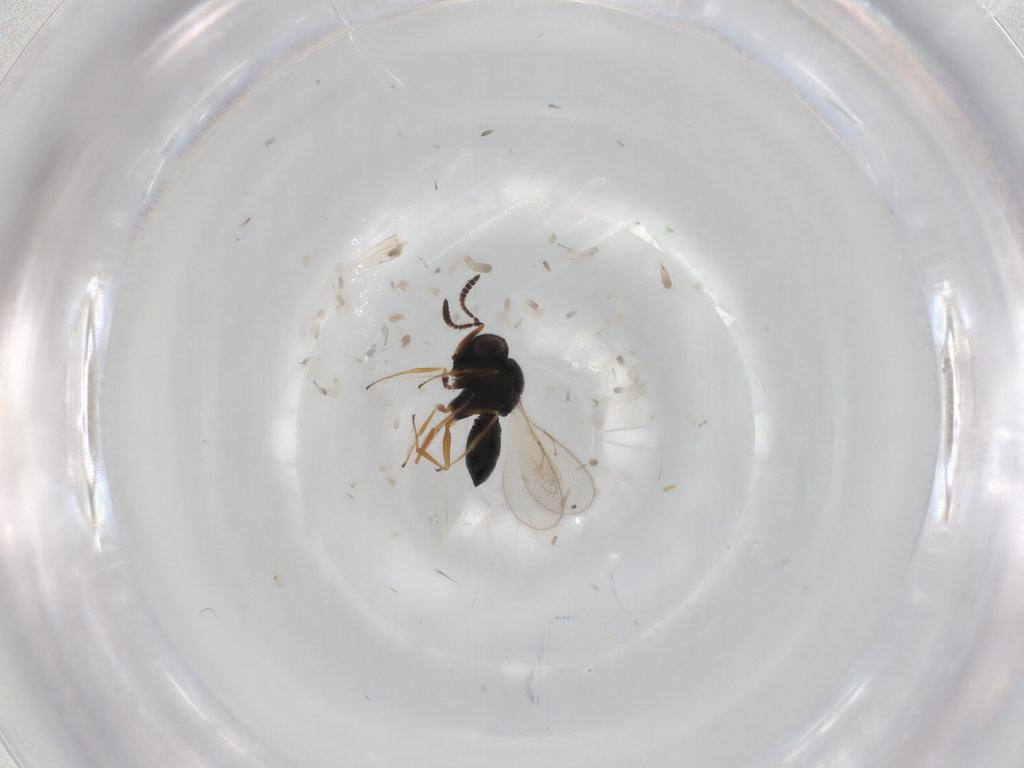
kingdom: Animalia
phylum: Arthropoda
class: Insecta
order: Hymenoptera
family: Scelionidae
